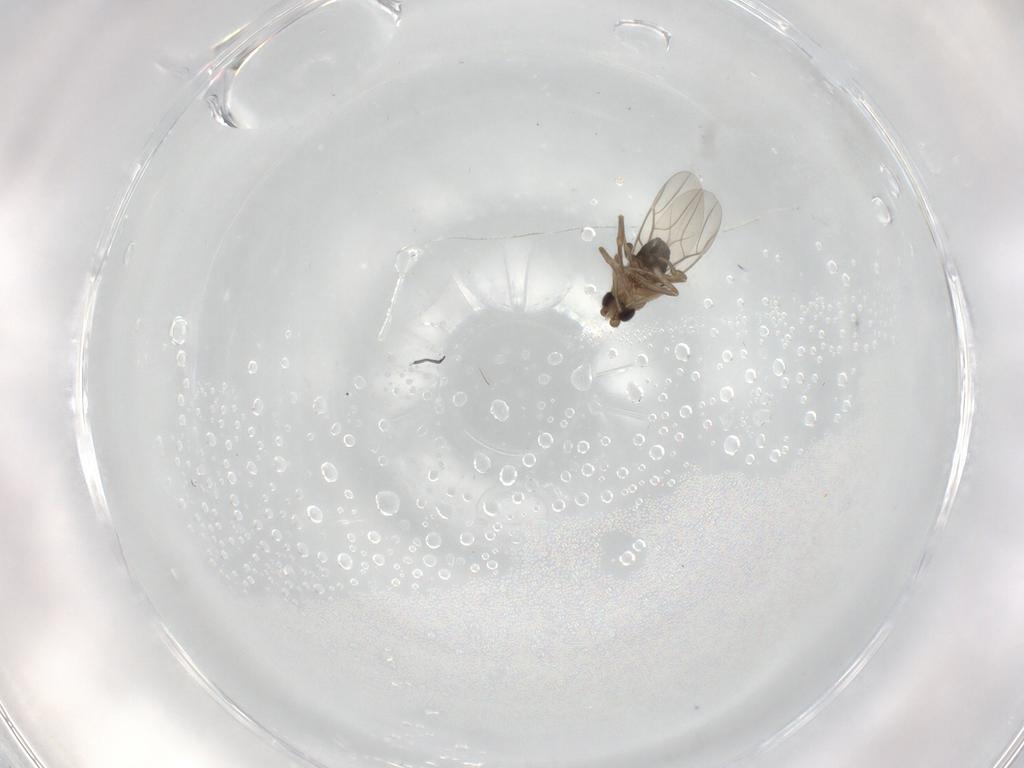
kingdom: Animalia
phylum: Arthropoda
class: Insecta
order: Diptera
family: Phoridae
